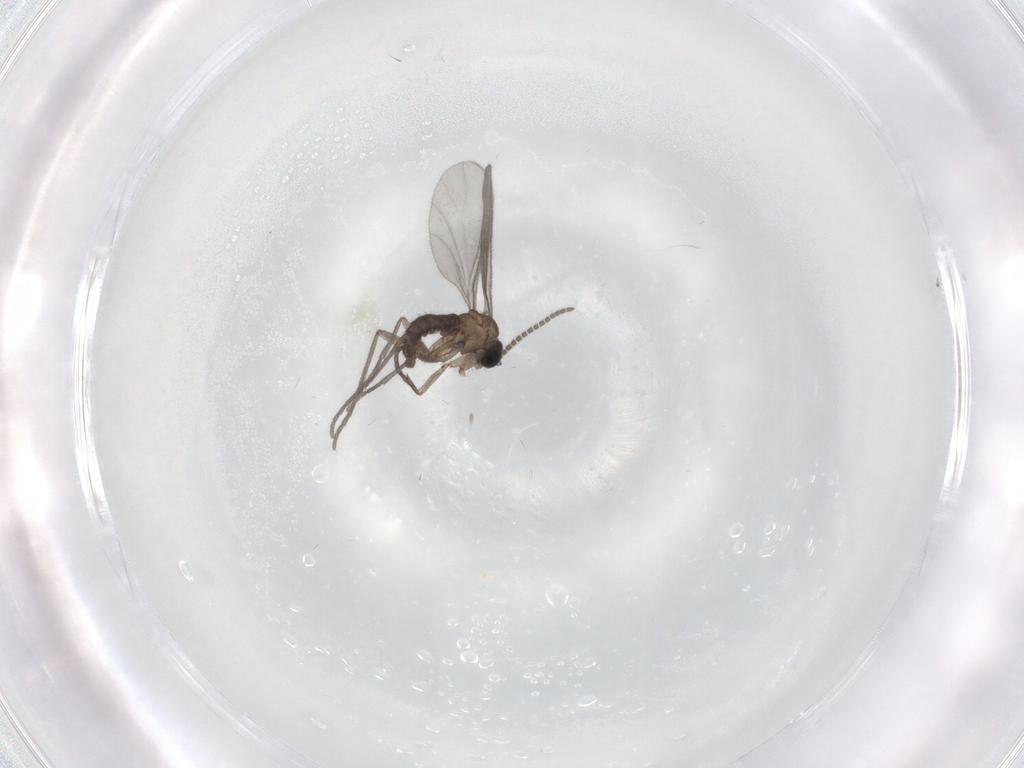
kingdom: Animalia
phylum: Arthropoda
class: Insecta
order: Diptera
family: Sciaridae
